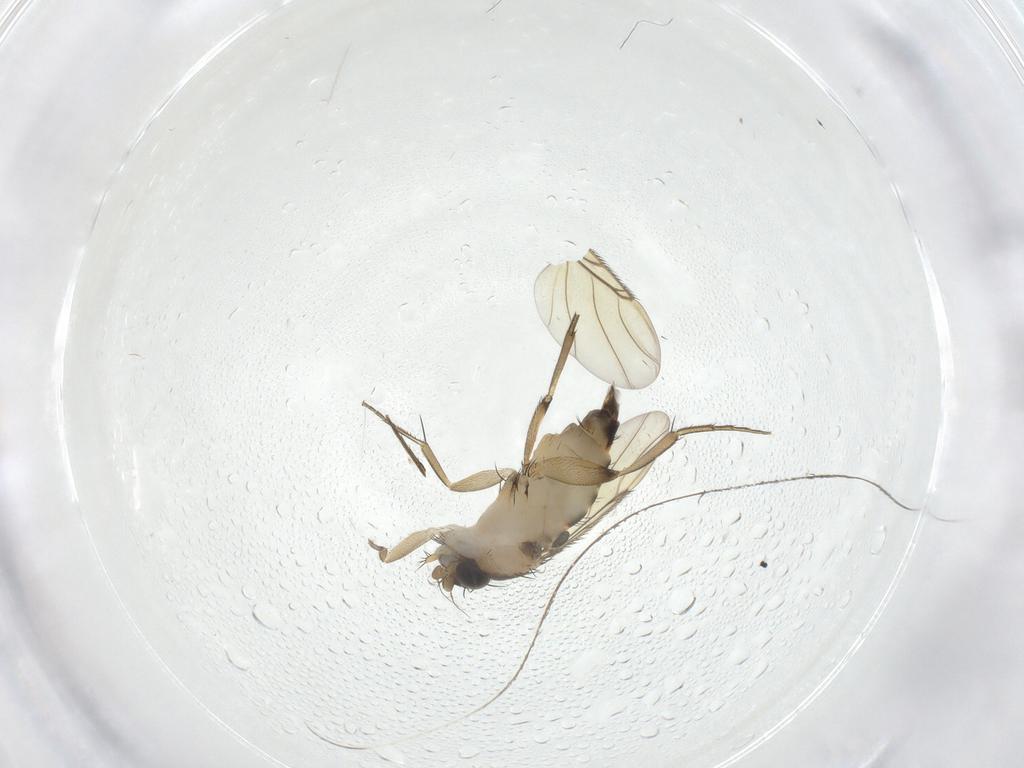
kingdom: Animalia
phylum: Arthropoda
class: Insecta
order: Diptera
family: Phoridae
